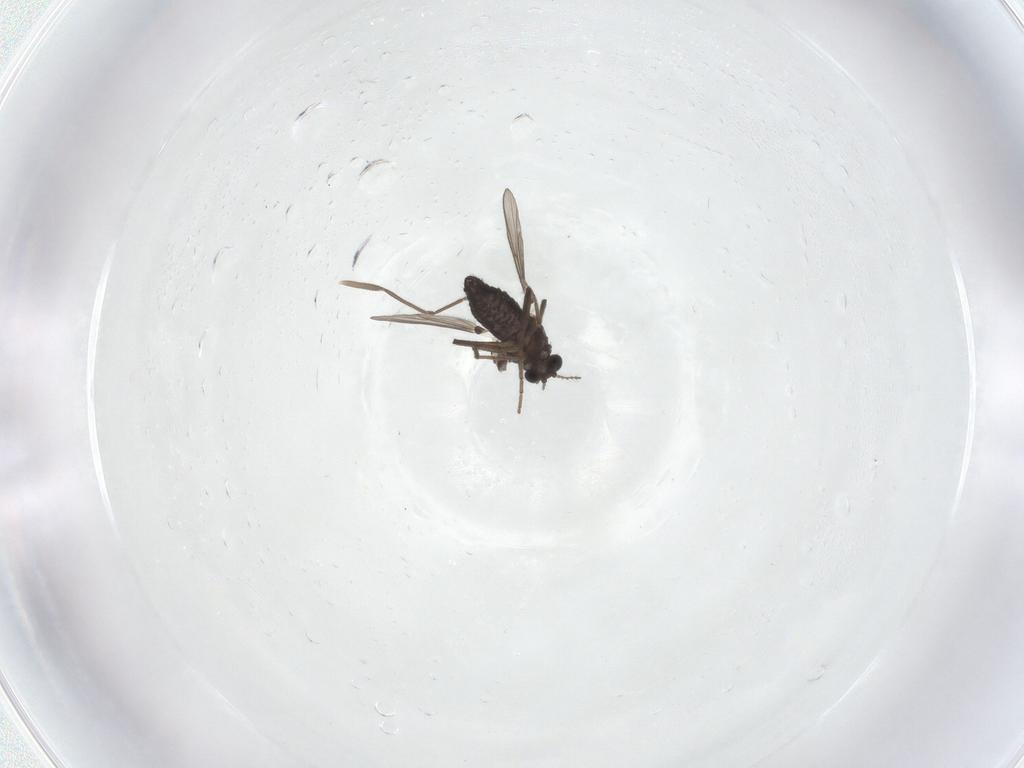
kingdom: Animalia
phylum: Arthropoda
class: Insecta
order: Diptera
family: Chironomidae
